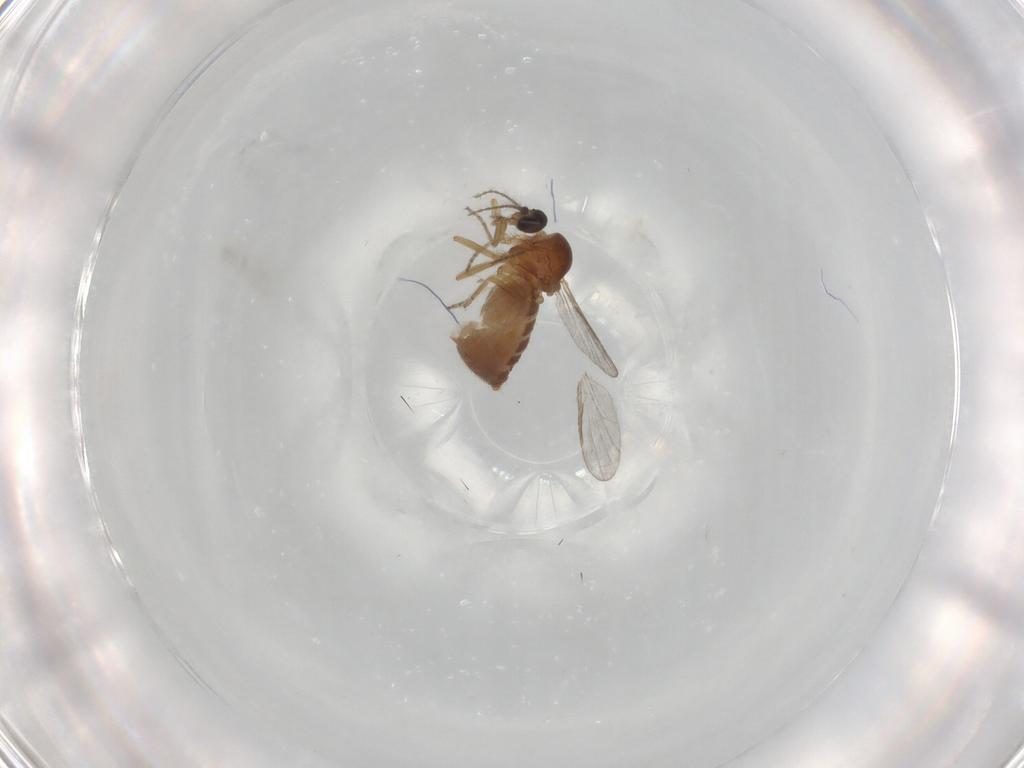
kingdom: Animalia
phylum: Arthropoda
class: Insecta
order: Diptera
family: Ceratopogonidae
